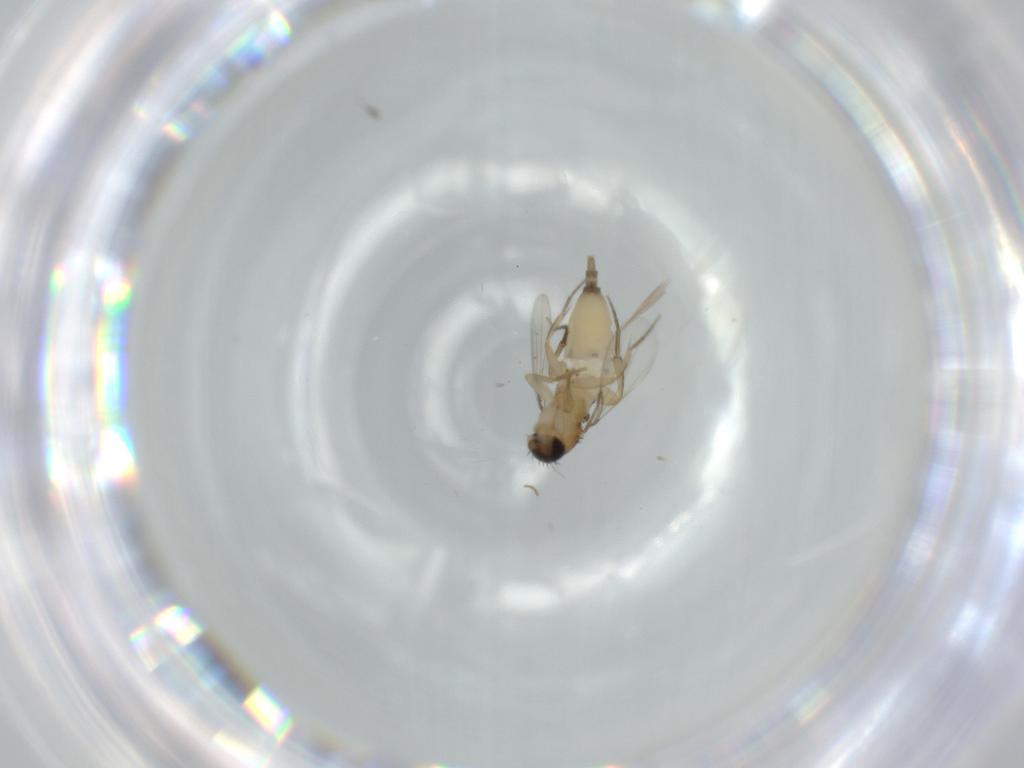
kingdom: Animalia
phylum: Arthropoda
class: Insecta
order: Diptera
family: Phoridae
